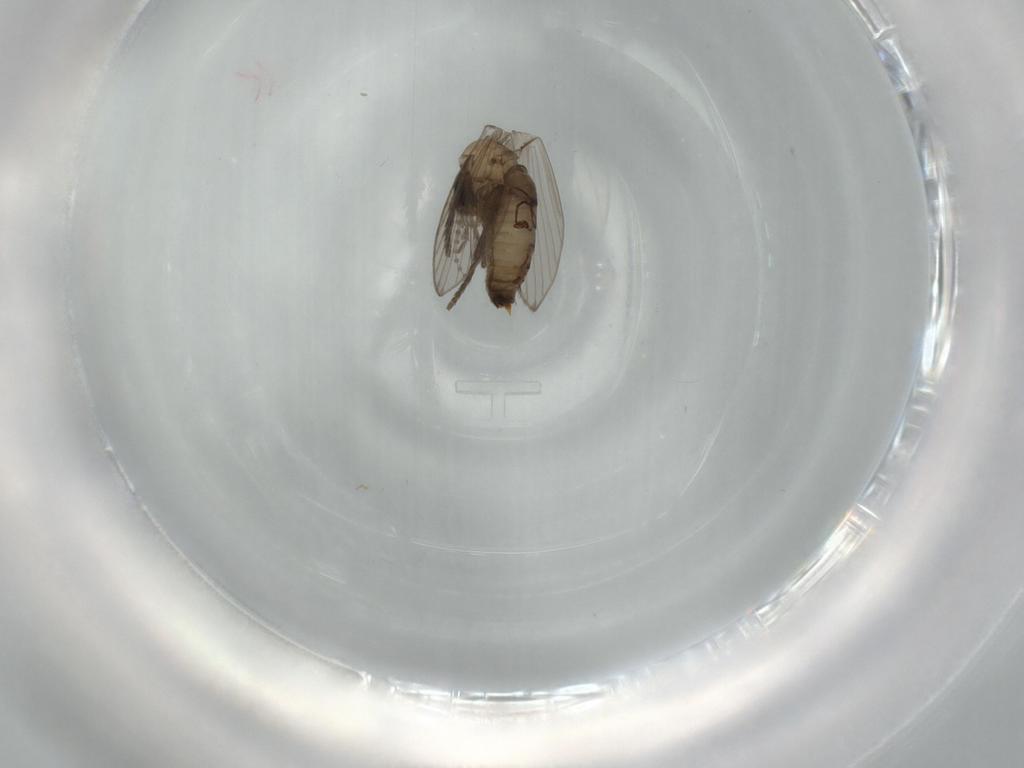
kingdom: Animalia
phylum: Arthropoda
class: Insecta
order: Diptera
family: Psychodidae
